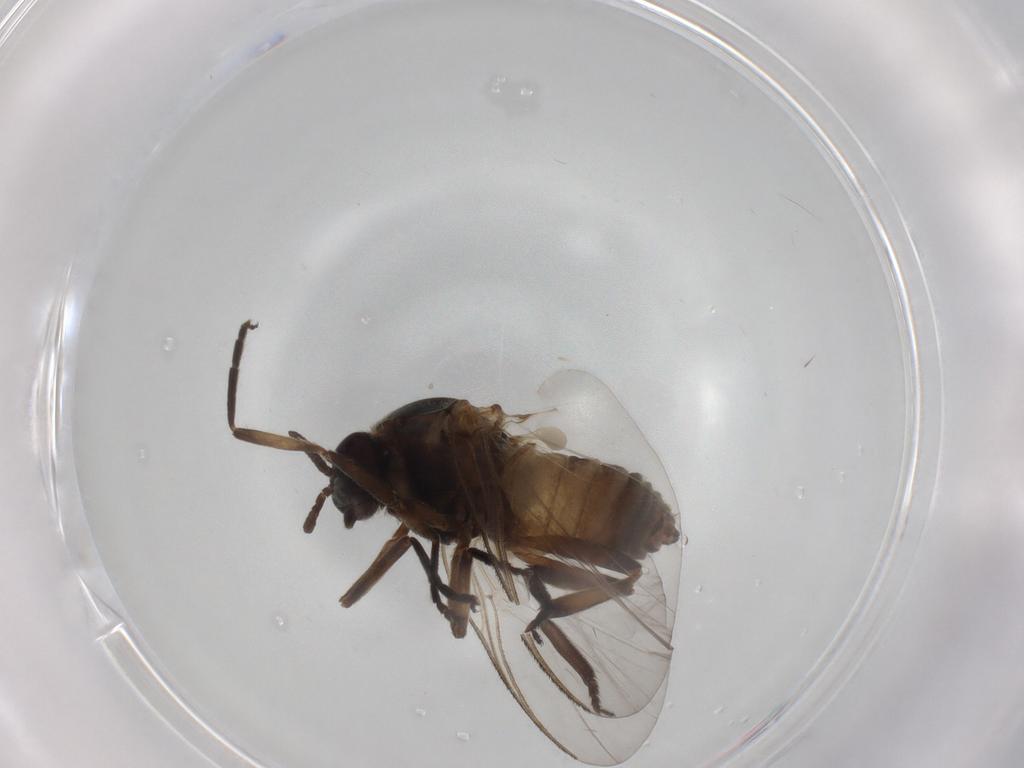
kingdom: Animalia
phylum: Arthropoda
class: Insecta
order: Diptera
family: Simuliidae
